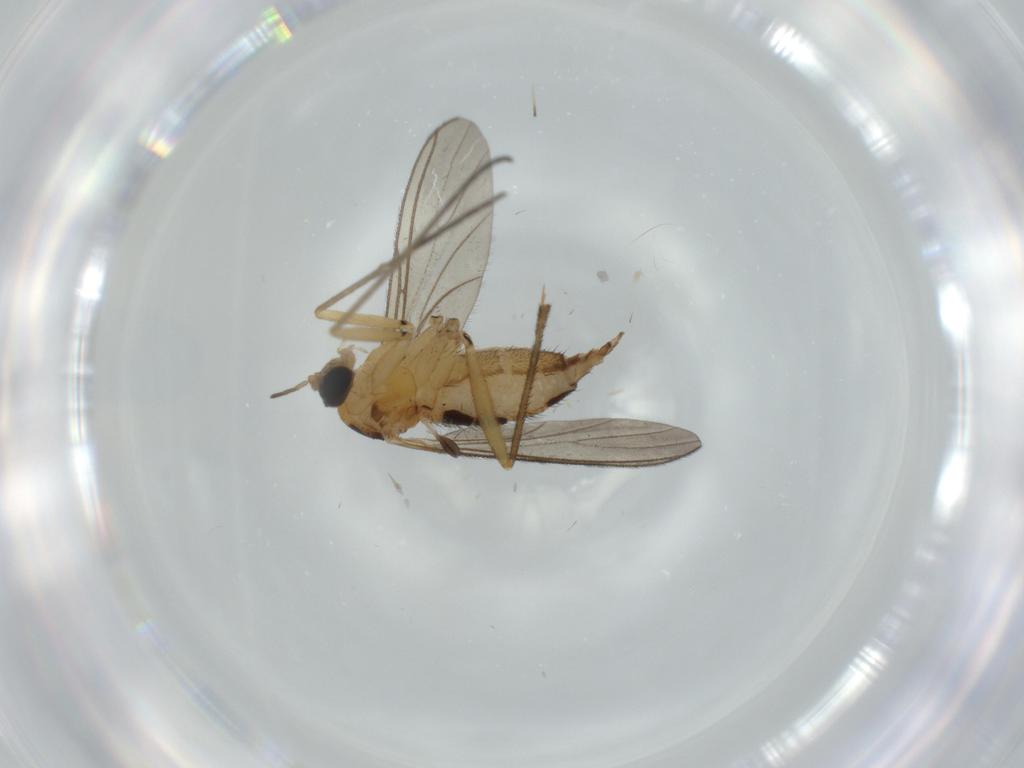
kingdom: Animalia
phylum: Arthropoda
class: Insecta
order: Diptera
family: Sciaridae
